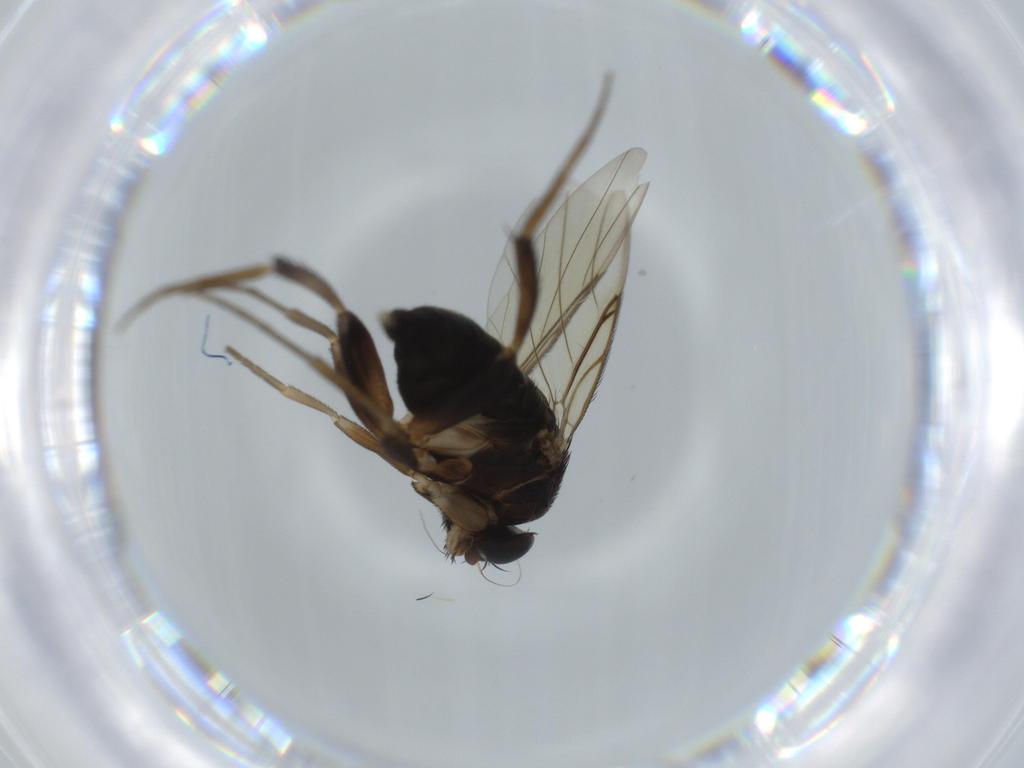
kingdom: Animalia
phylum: Arthropoda
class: Insecta
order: Diptera
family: Phoridae
